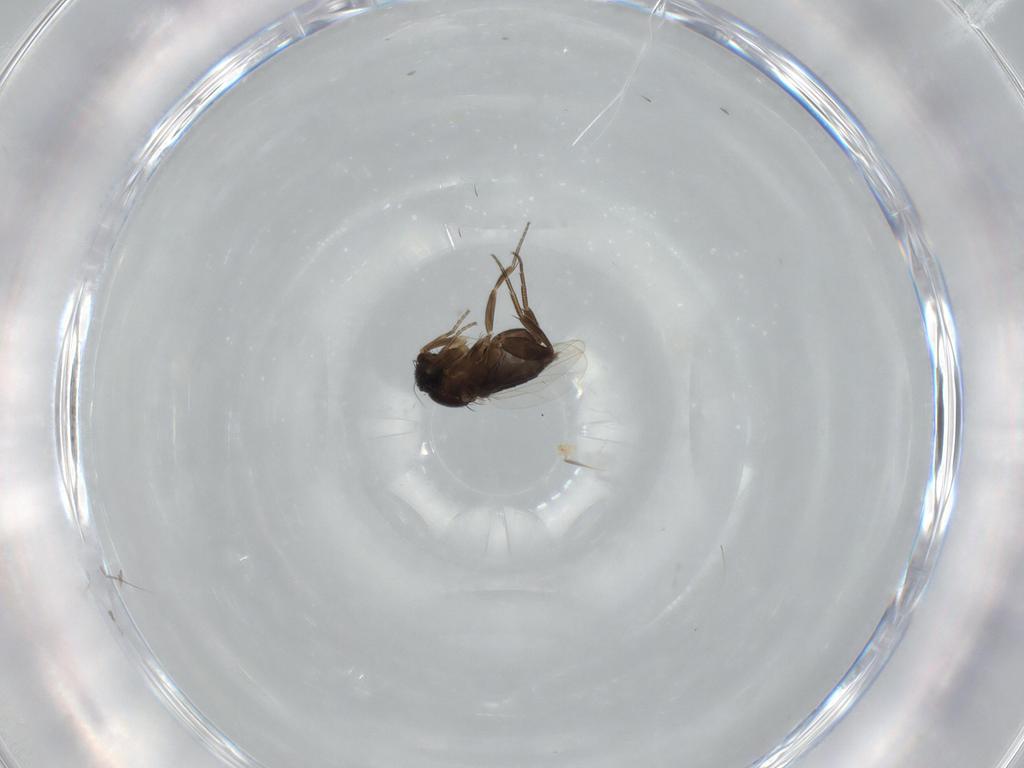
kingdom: Animalia
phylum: Arthropoda
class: Insecta
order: Diptera
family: Phoridae
